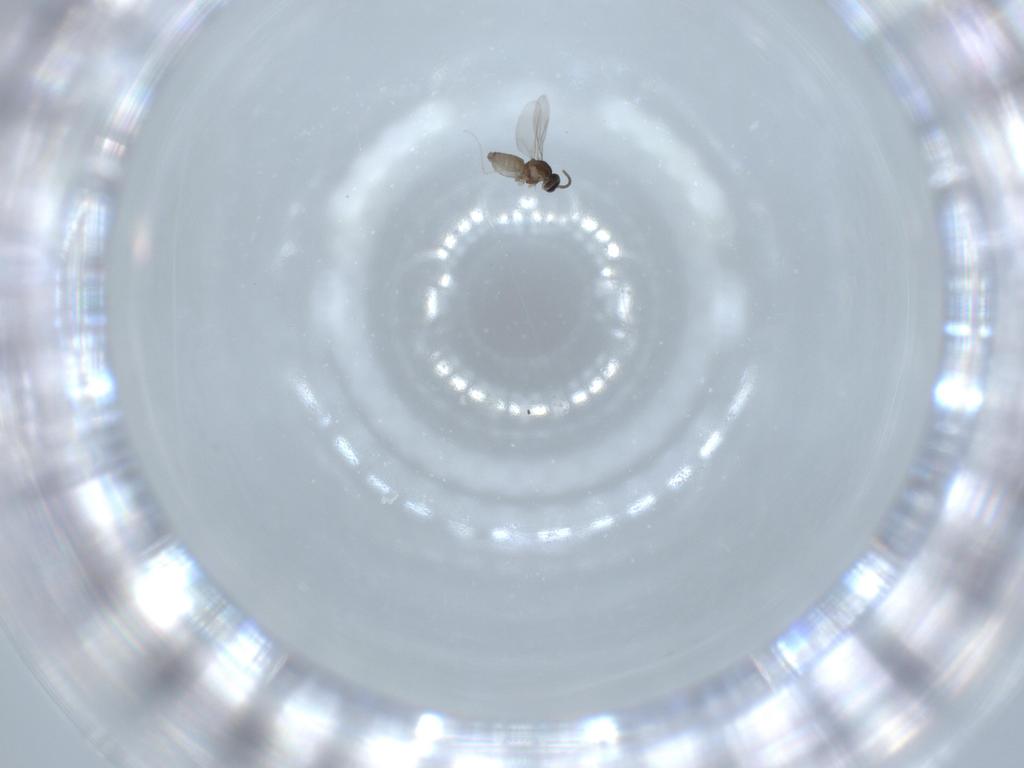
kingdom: Animalia
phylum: Arthropoda
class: Insecta
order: Diptera
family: Cecidomyiidae
